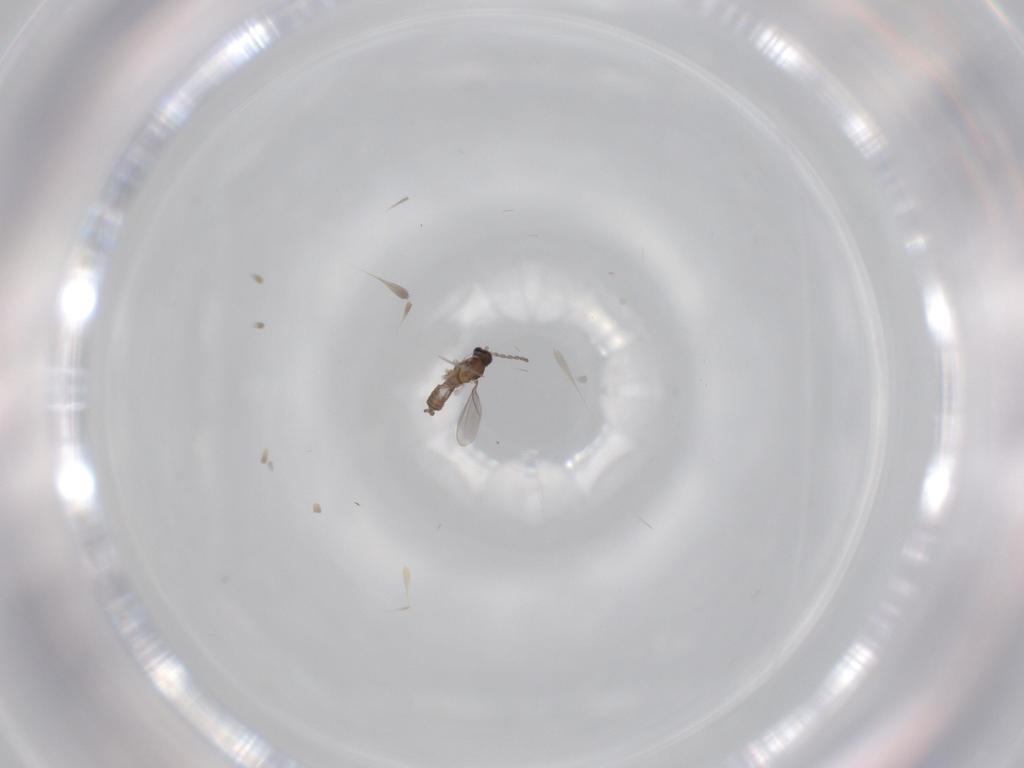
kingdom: Animalia
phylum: Arthropoda
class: Insecta
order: Diptera
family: Cecidomyiidae
